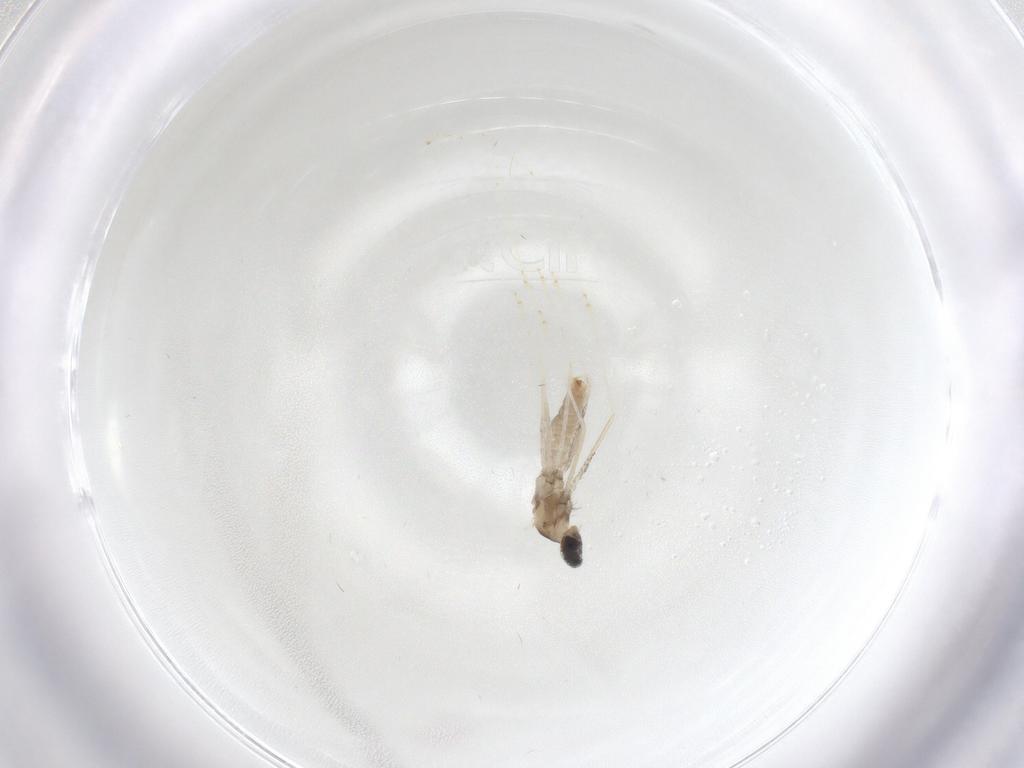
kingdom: Animalia
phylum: Arthropoda
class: Insecta
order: Diptera
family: Cecidomyiidae
